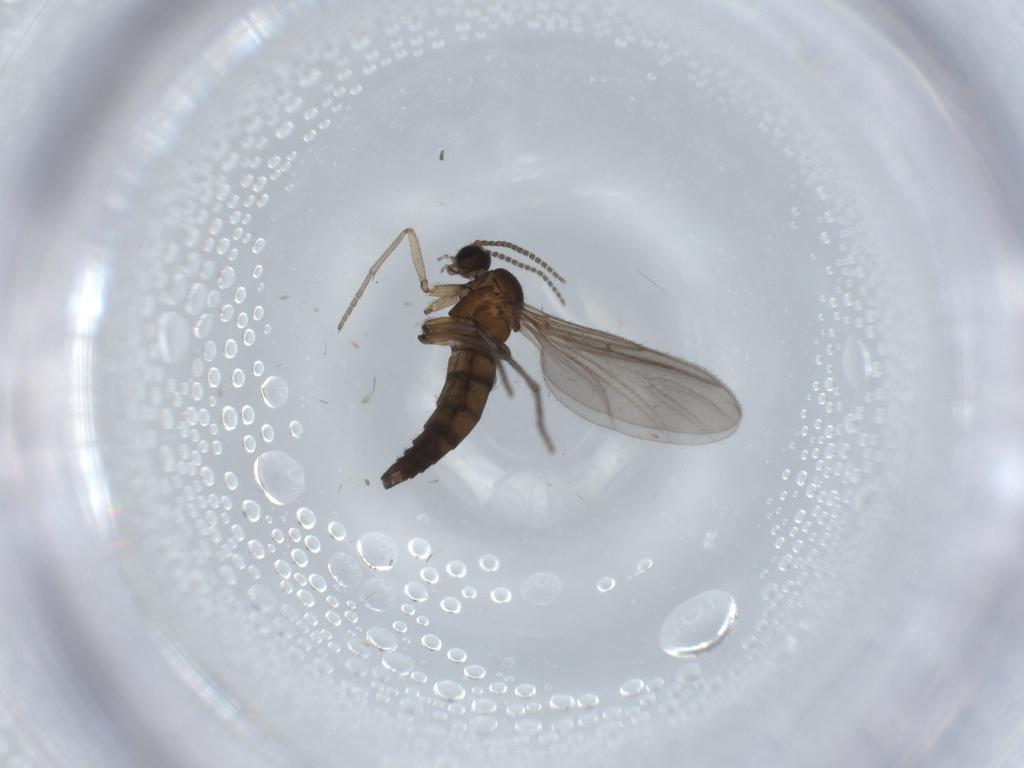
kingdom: Animalia
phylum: Arthropoda
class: Insecta
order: Diptera
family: Sciaridae
